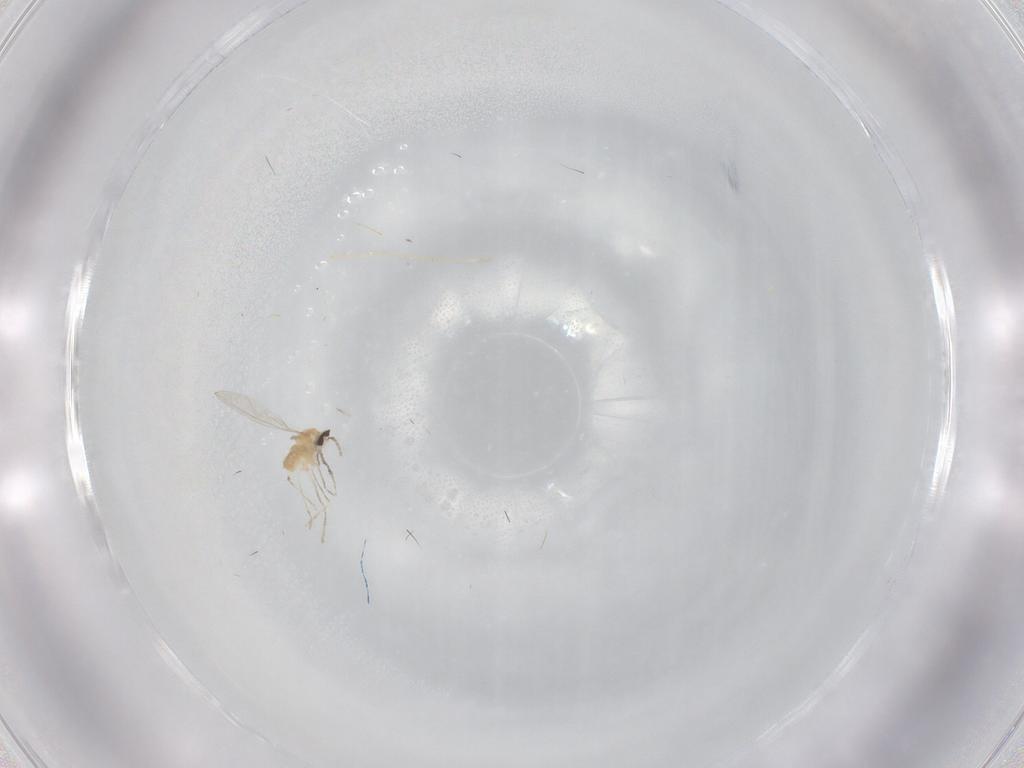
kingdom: Animalia
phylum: Arthropoda
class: Insecta
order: Diptera
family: Cecidomyiidae
